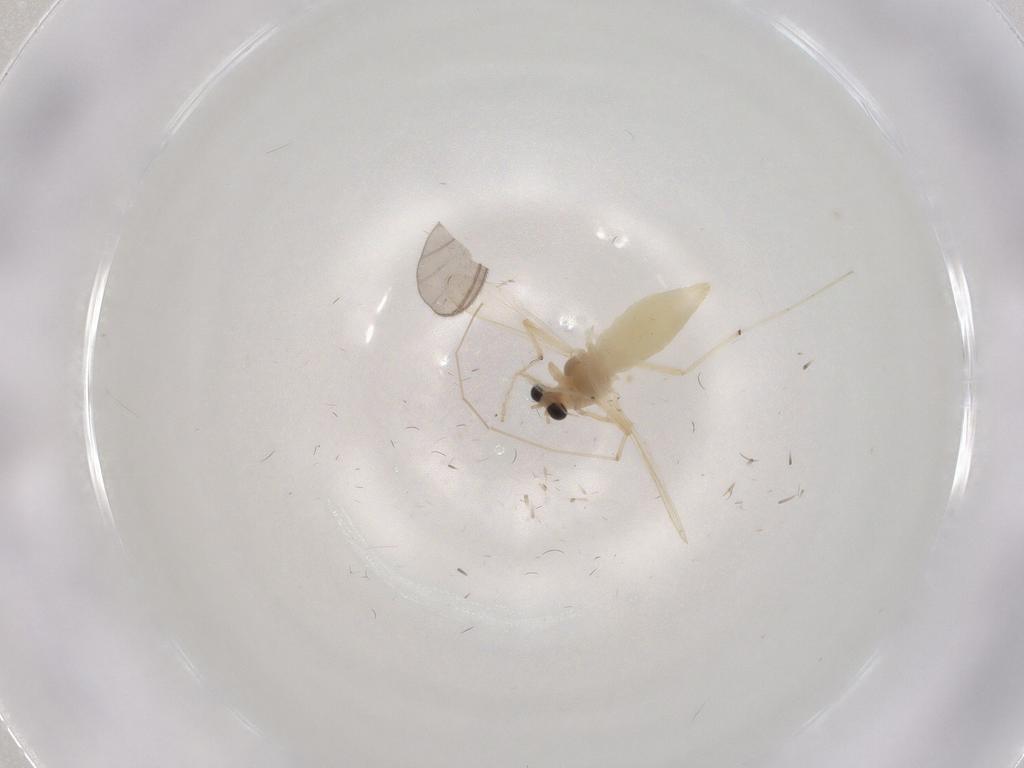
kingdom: Animalia
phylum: Arthropoda
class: Insecta
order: Diptera
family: Chironomidae
